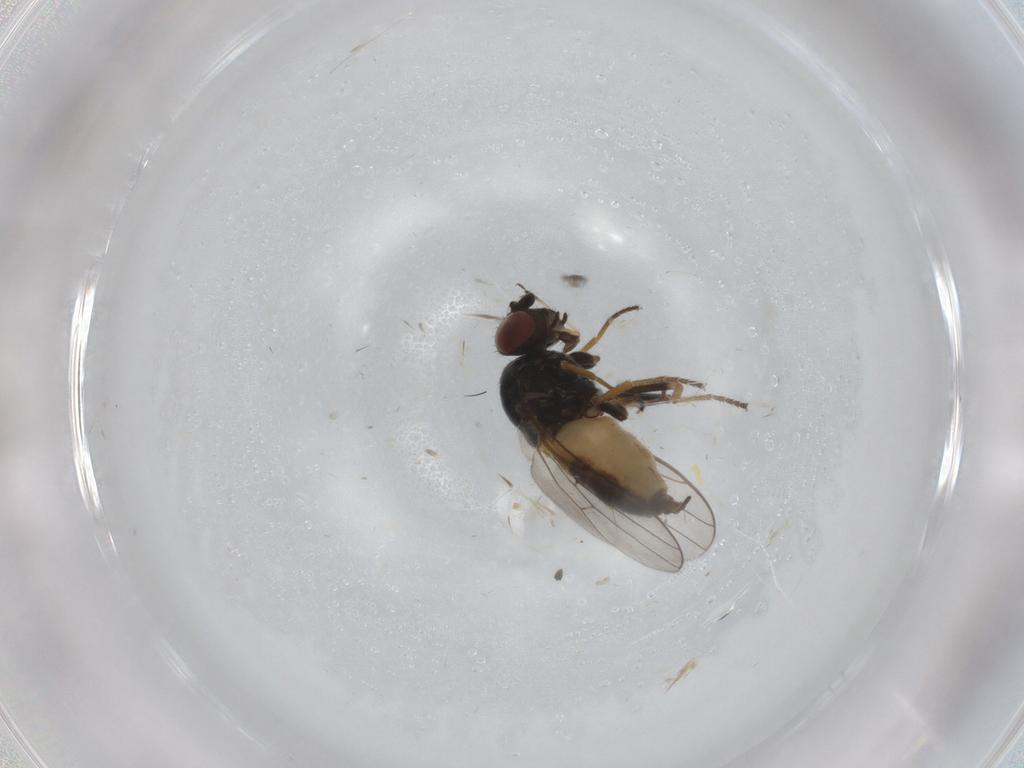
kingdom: Animalia
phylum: Arthropoda
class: Insecta
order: Diptera
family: Chloropidae
